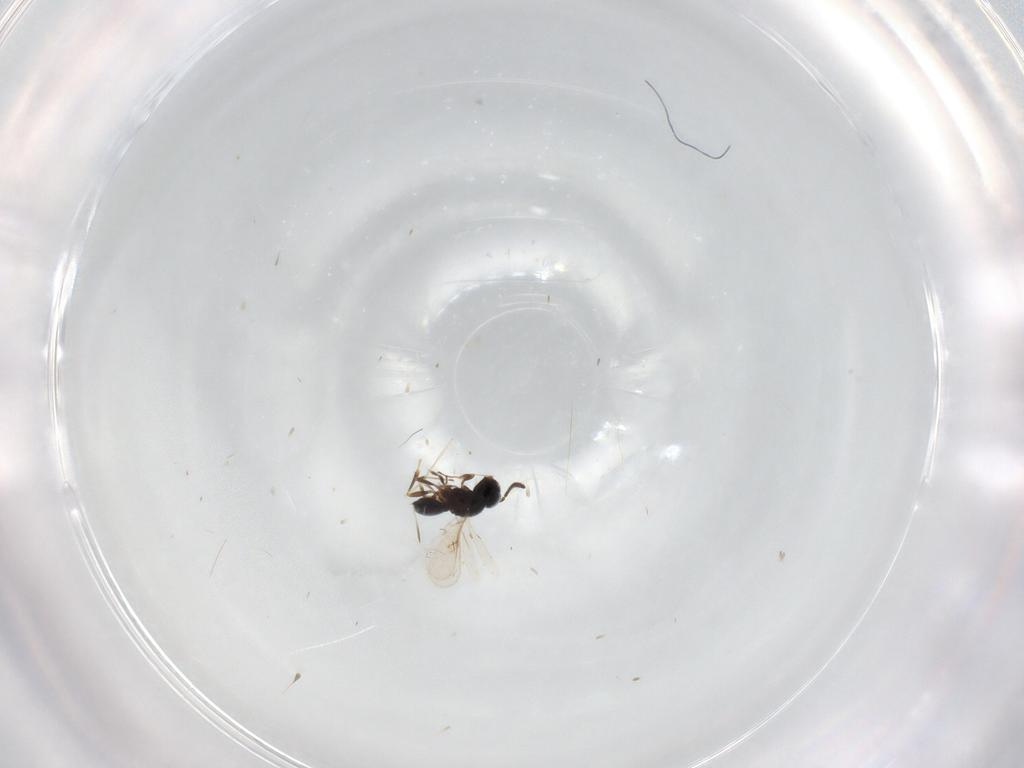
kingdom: Animalia
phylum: Arthropoda
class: Insecta
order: Hymenoptera
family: Scelionidae
